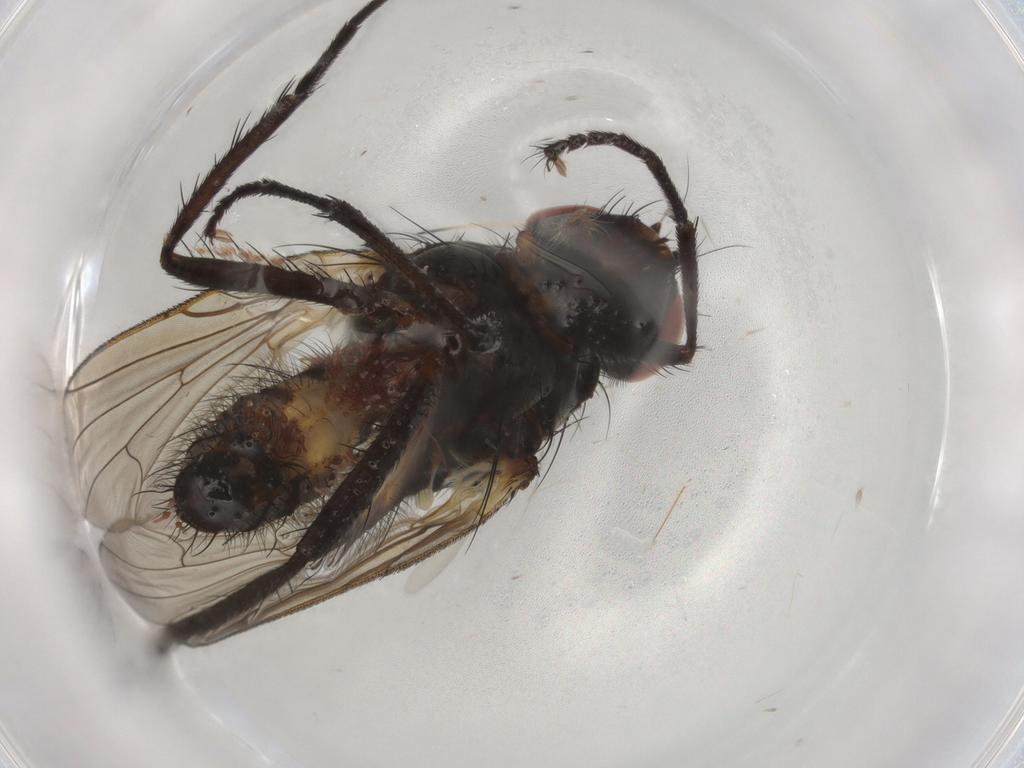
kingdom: Animalia
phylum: Arthropoda
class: Insecta
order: Diptera
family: Anthomyiidae
